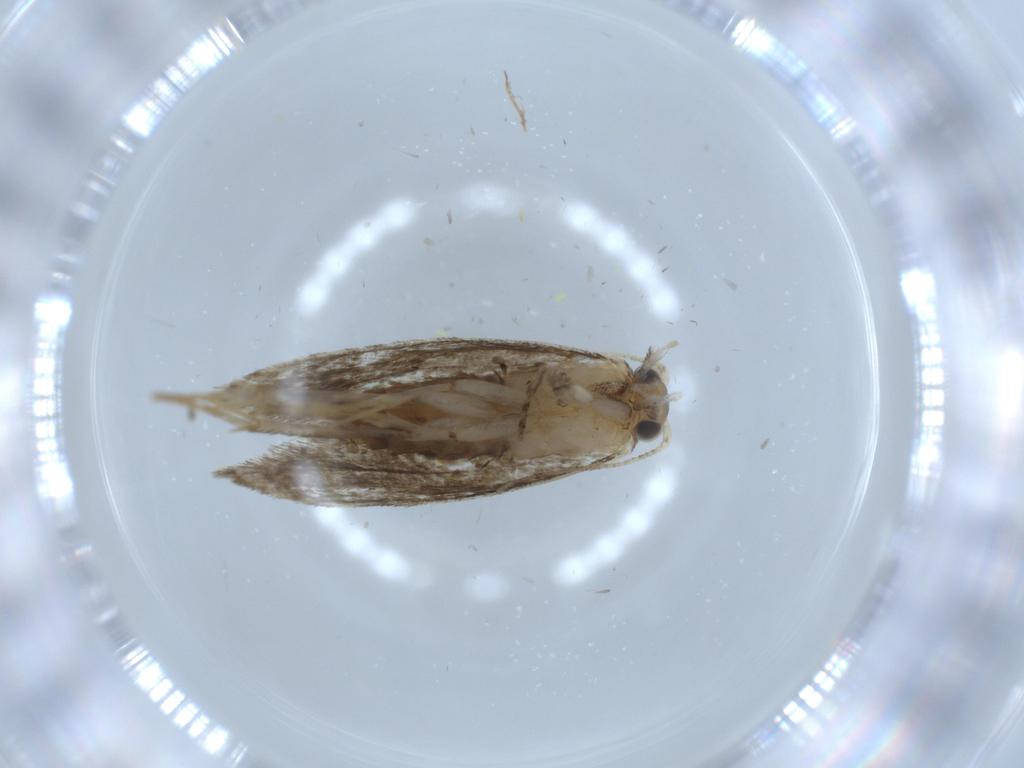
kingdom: Animalia
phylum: Arthropoda
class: Insecta
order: Lepidoptera
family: Tineidae
